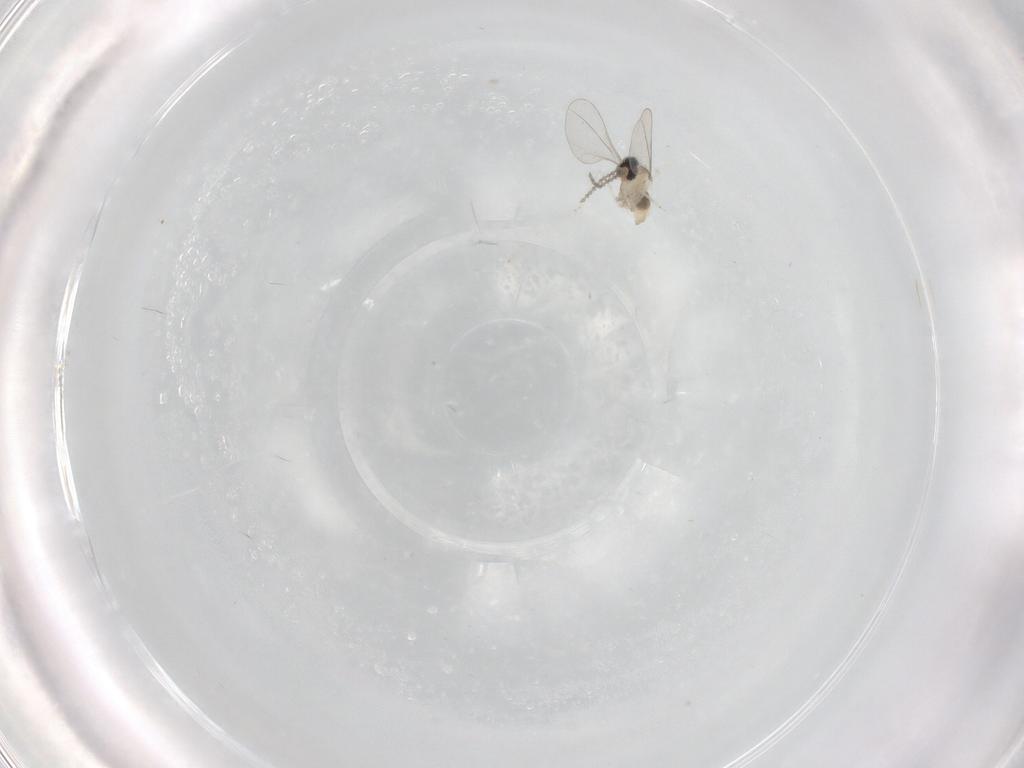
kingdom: Animalia
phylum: Arthropoda
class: Insecta
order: Diptera
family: Cecidomyiidae
